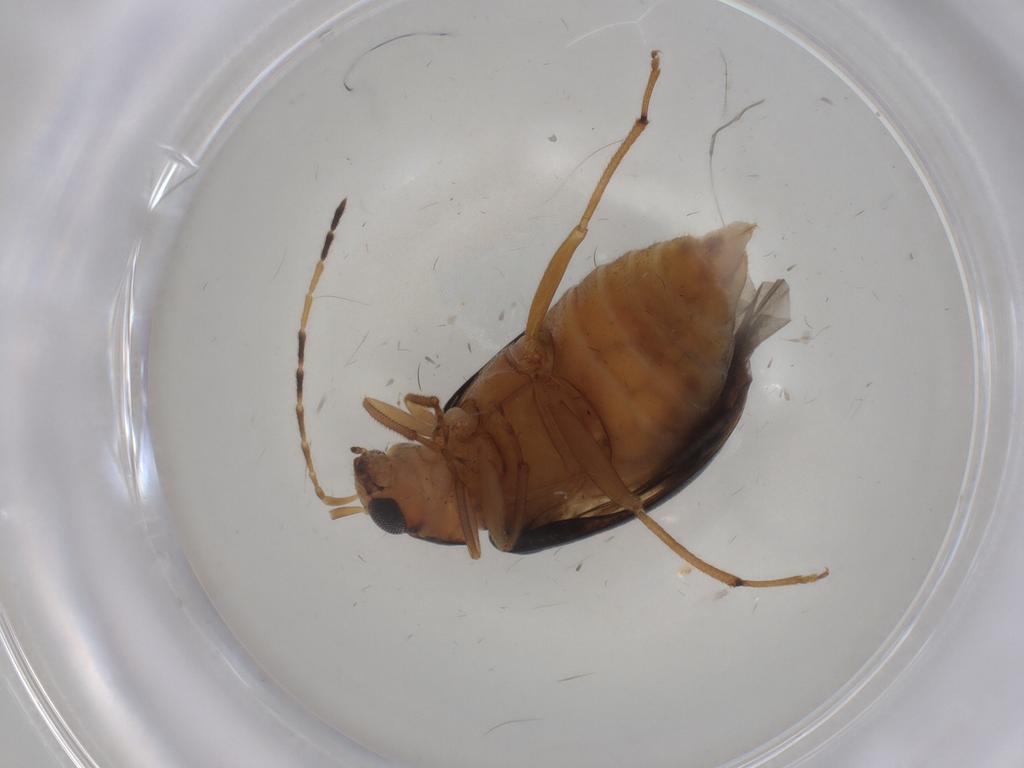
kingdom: Animalia
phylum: Arthropoda
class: Insecta
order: Coleoptera
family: Chrysomelidae
